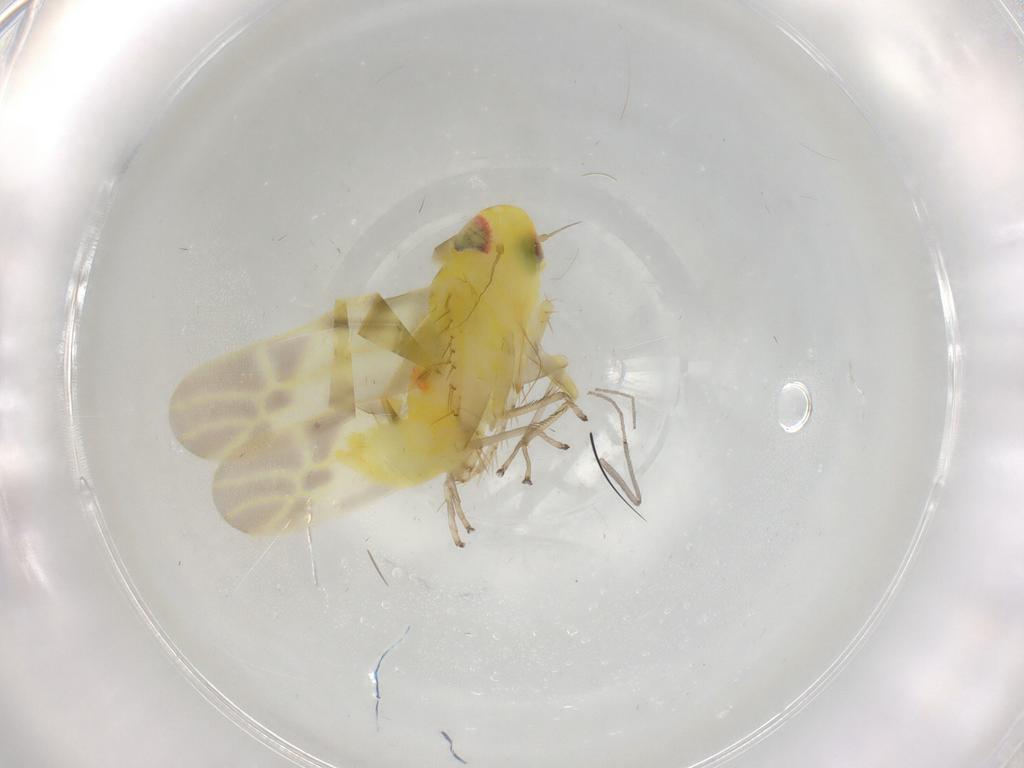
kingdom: Animalia
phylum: Arthropoda
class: Insecta
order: Hemiptera
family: Cicadellidae
